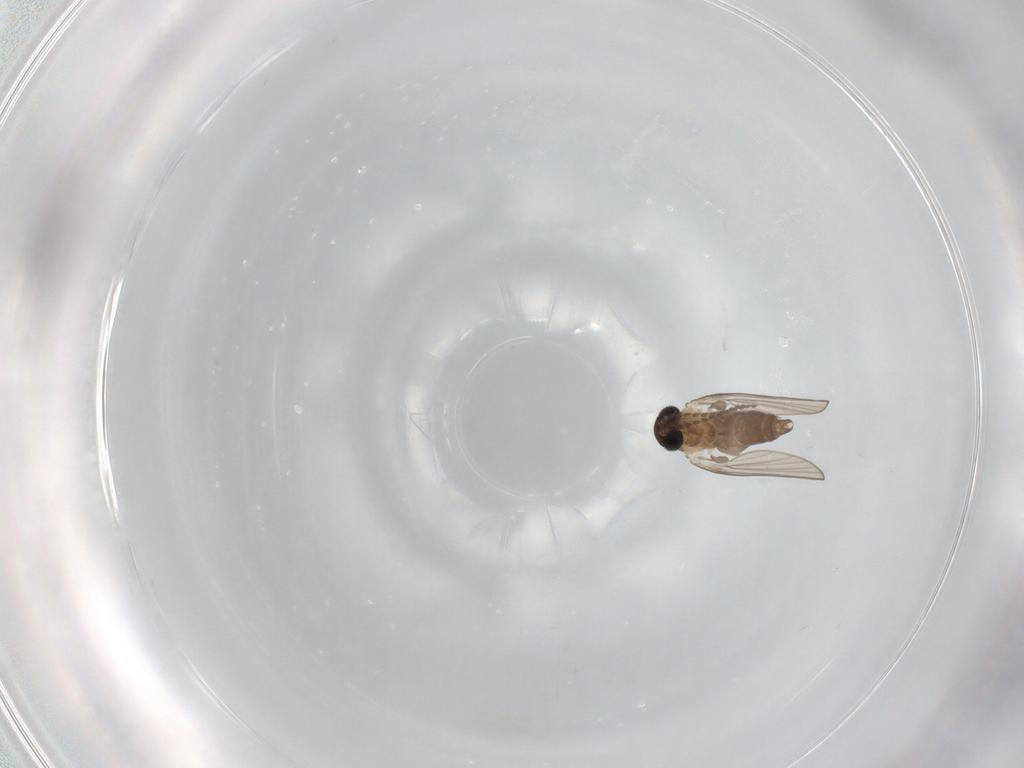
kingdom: Animalia
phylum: Arthropoda
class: Insecta
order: Diptera
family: Psychodidae
